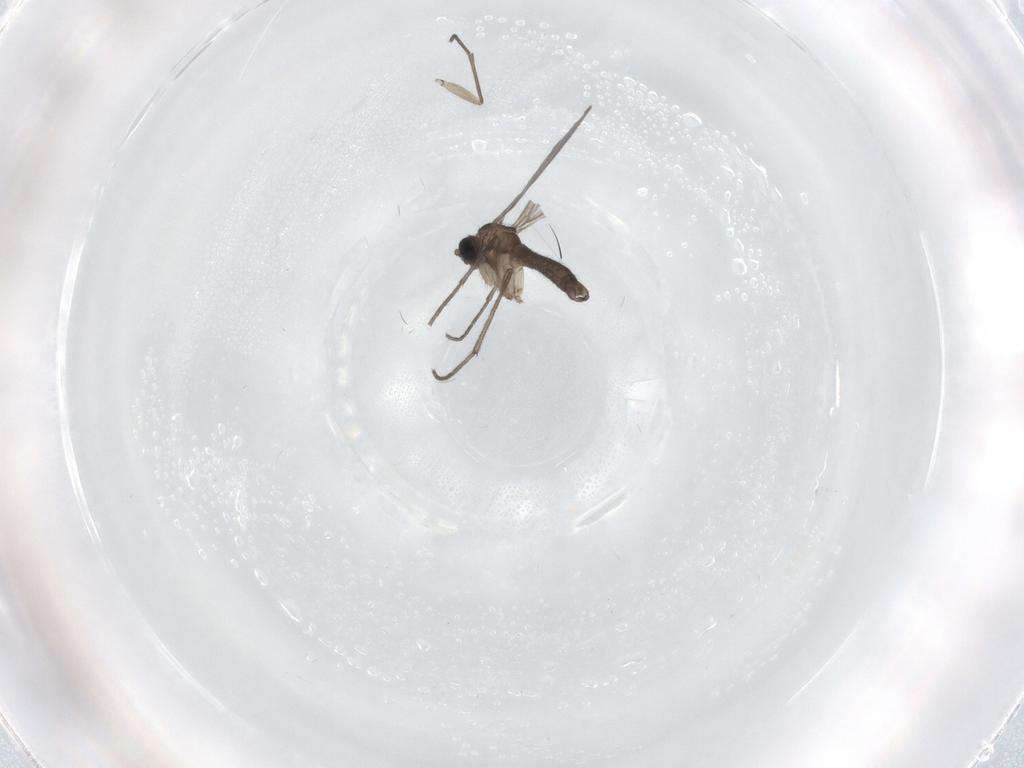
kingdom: Animalia
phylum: Arthropoda
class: Insecta
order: Diptera
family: Sciaridae
